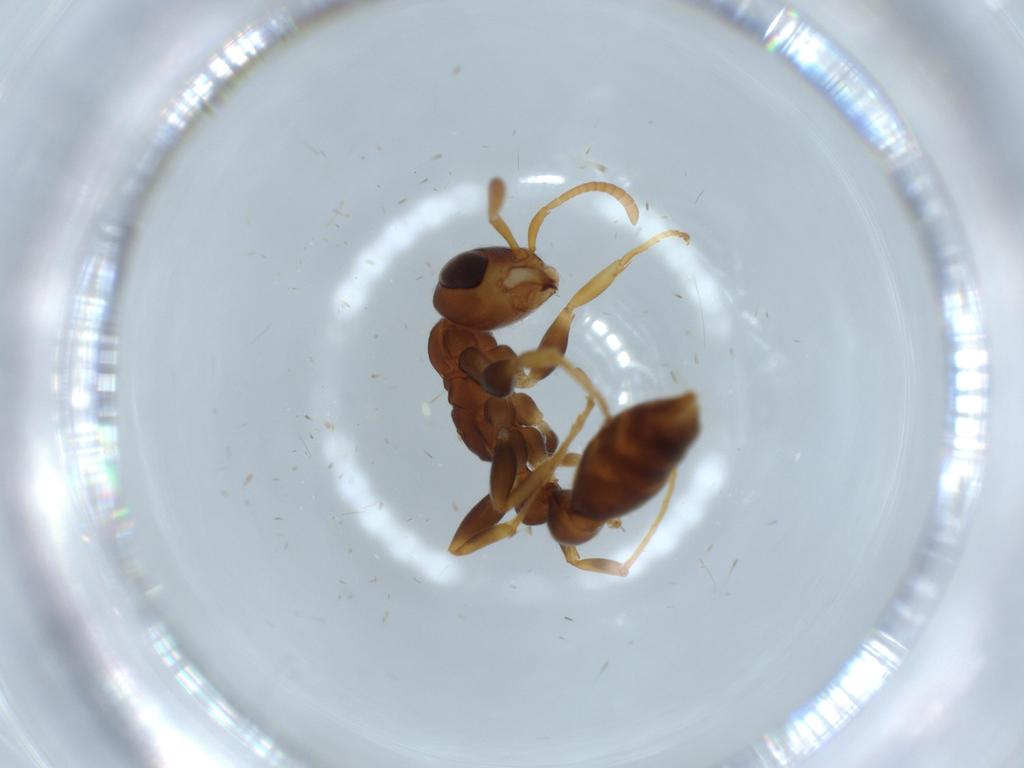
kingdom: Animalia
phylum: Arthropoda
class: Insecta
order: Hymenoptera
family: Formicidae
